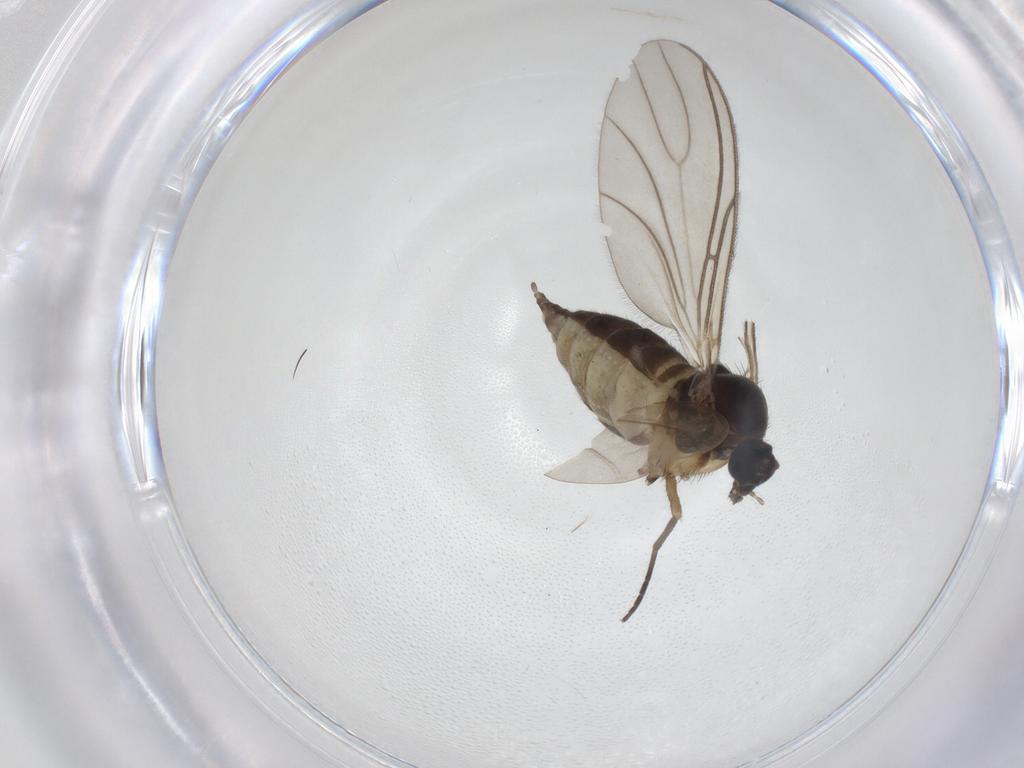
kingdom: Animalia
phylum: Arthropoda
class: Insecta
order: Diptera
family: Sciaridae
